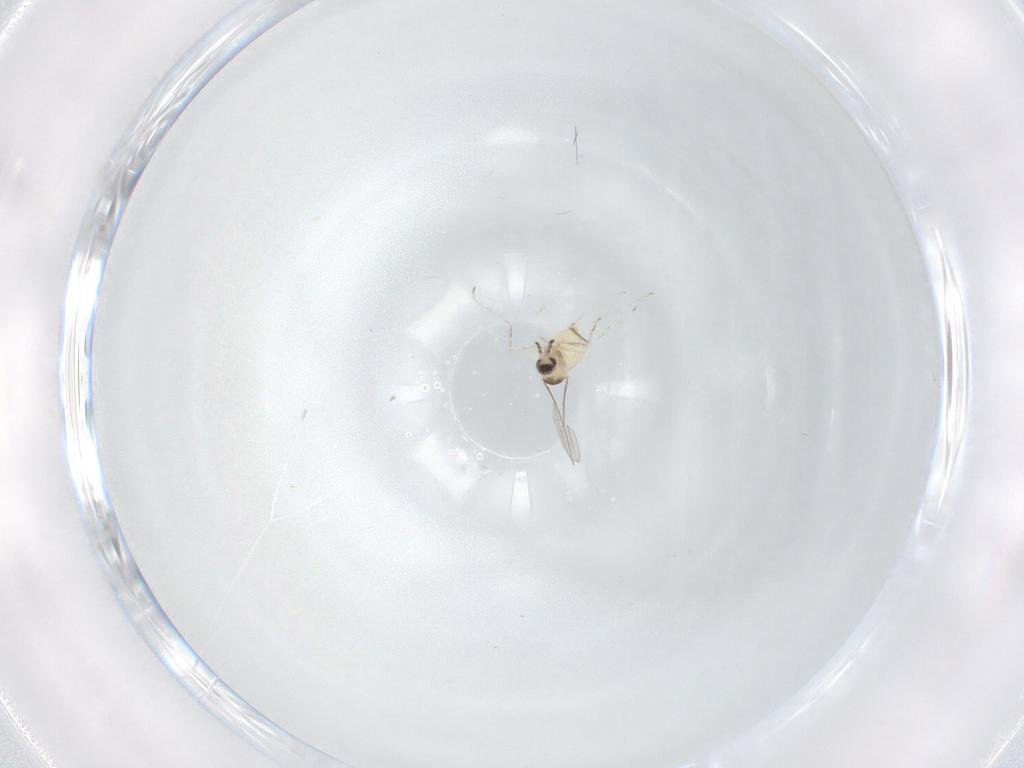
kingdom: Animalia
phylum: Arthropoda
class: Insecta
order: Diptera
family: Cecidomyiidae
